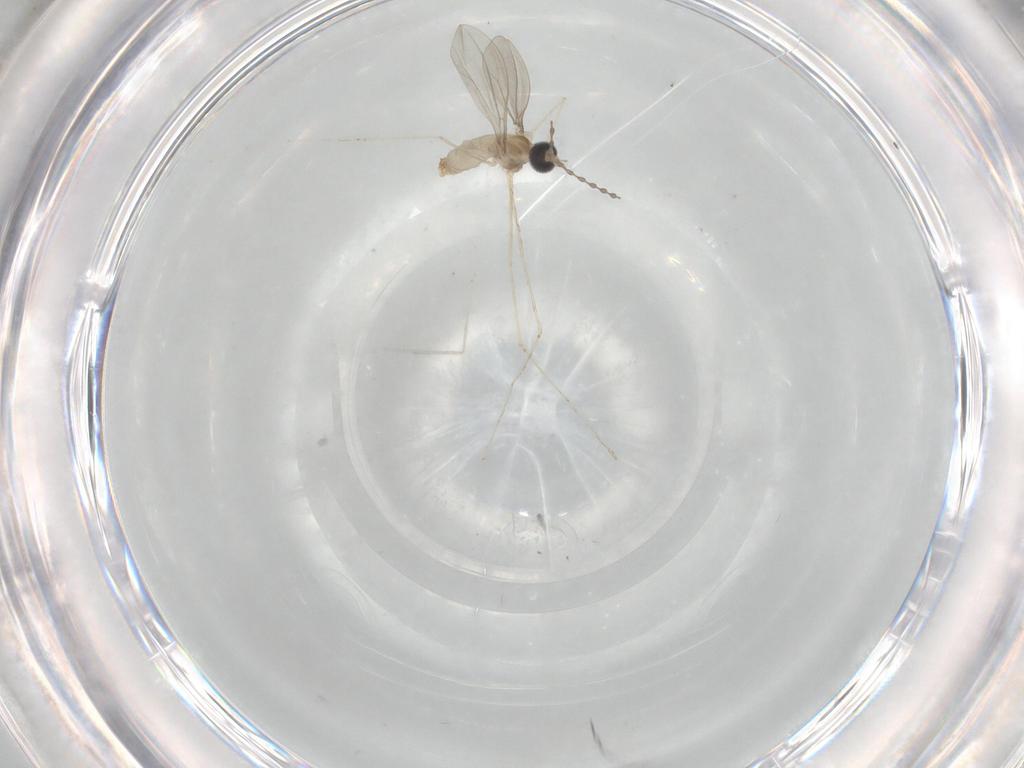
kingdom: Animalia
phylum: Arthropoda
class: Insecta
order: Diptera
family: Cecidomyiidae
